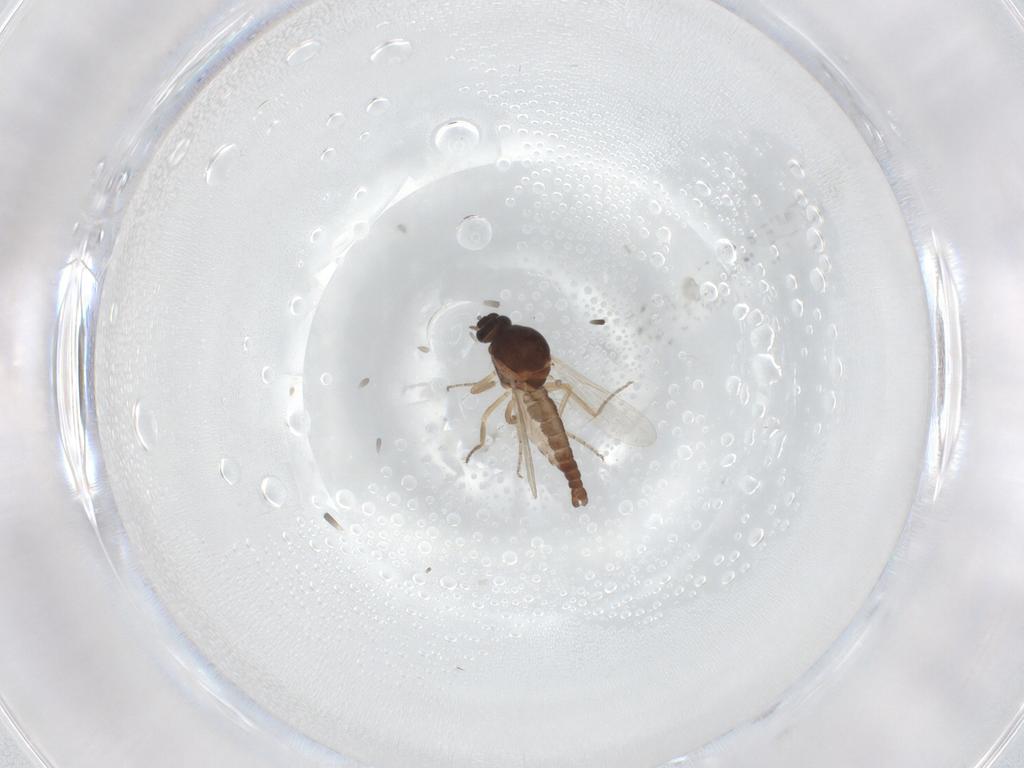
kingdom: Animalia
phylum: Arthropoda
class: Insecta
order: Diptera
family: Ceratopogonidae
